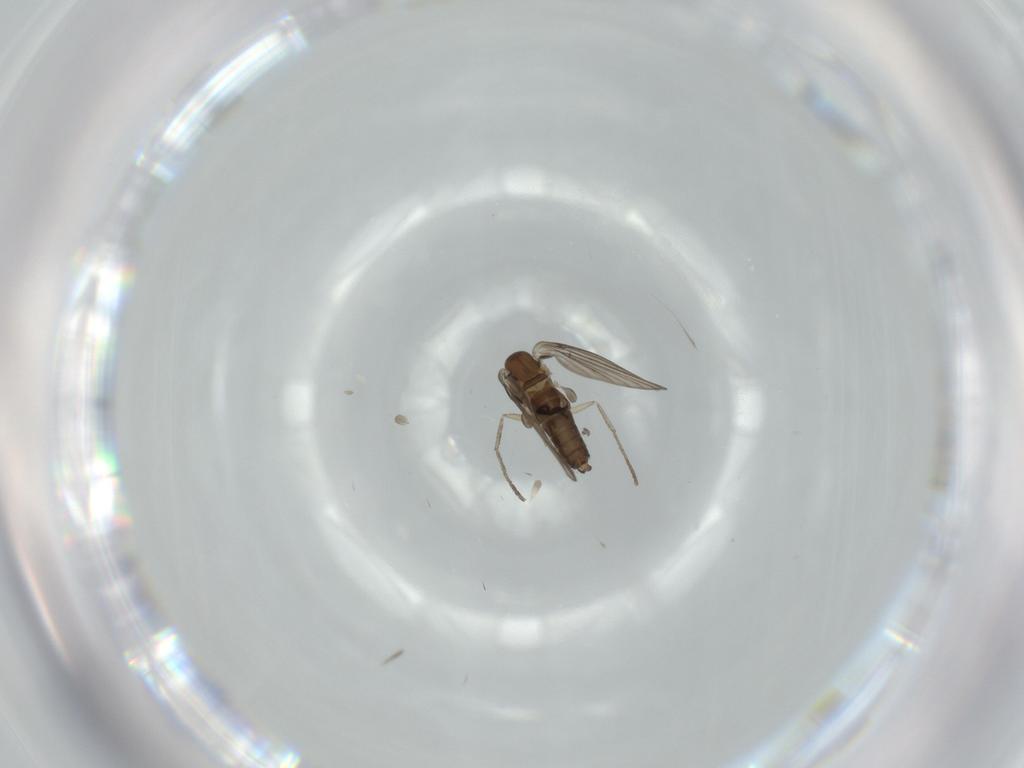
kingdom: Animalia
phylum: Arthropoda
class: Insecta
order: Diptera
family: Psychodidae
